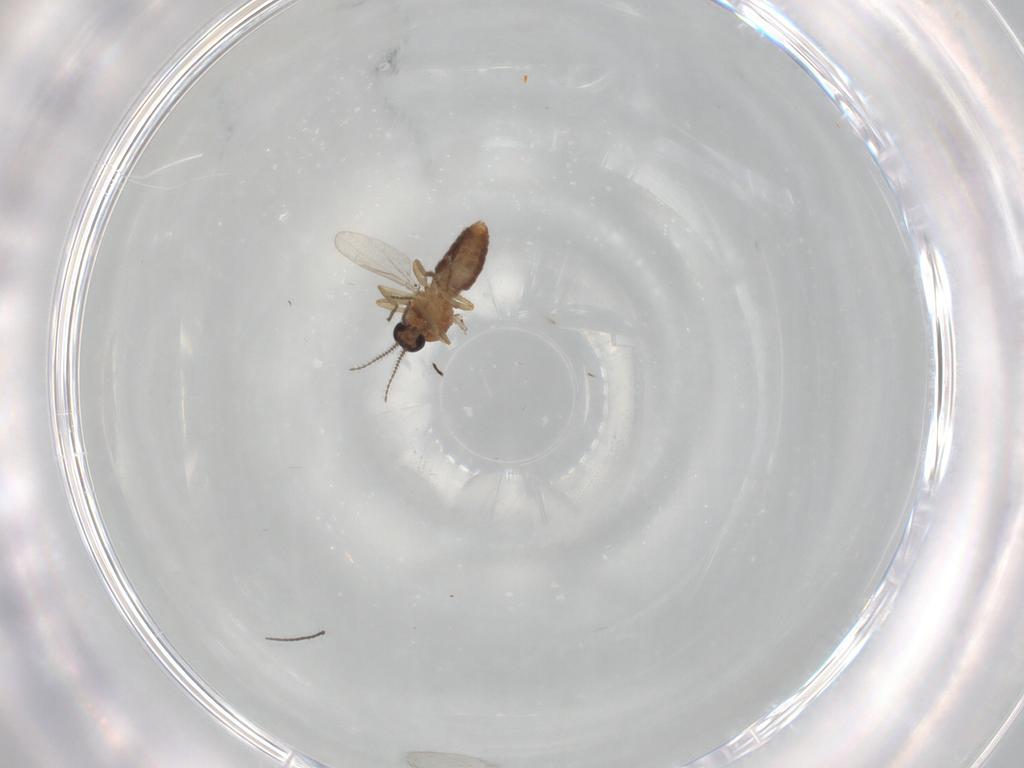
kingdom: Animalia
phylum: Arthropoda
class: Insecta
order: Diptera
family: Ceratopogonidae
